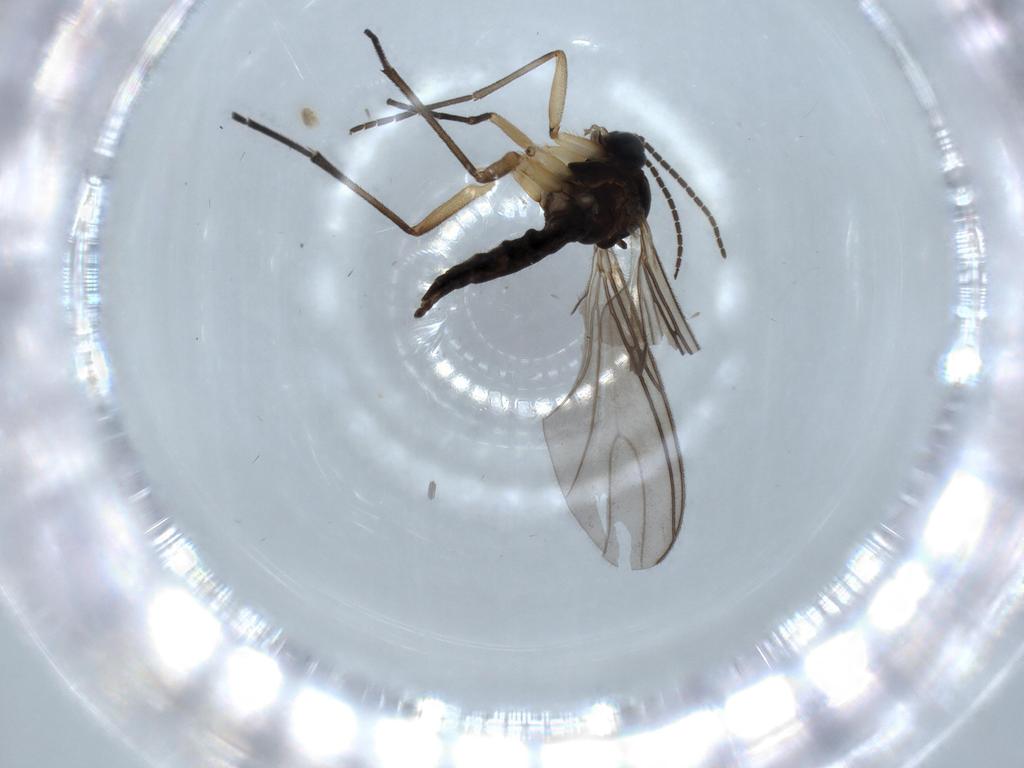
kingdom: Animalia
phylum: Arthropoda
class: Insecta
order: Diptera
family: Sciaridae
